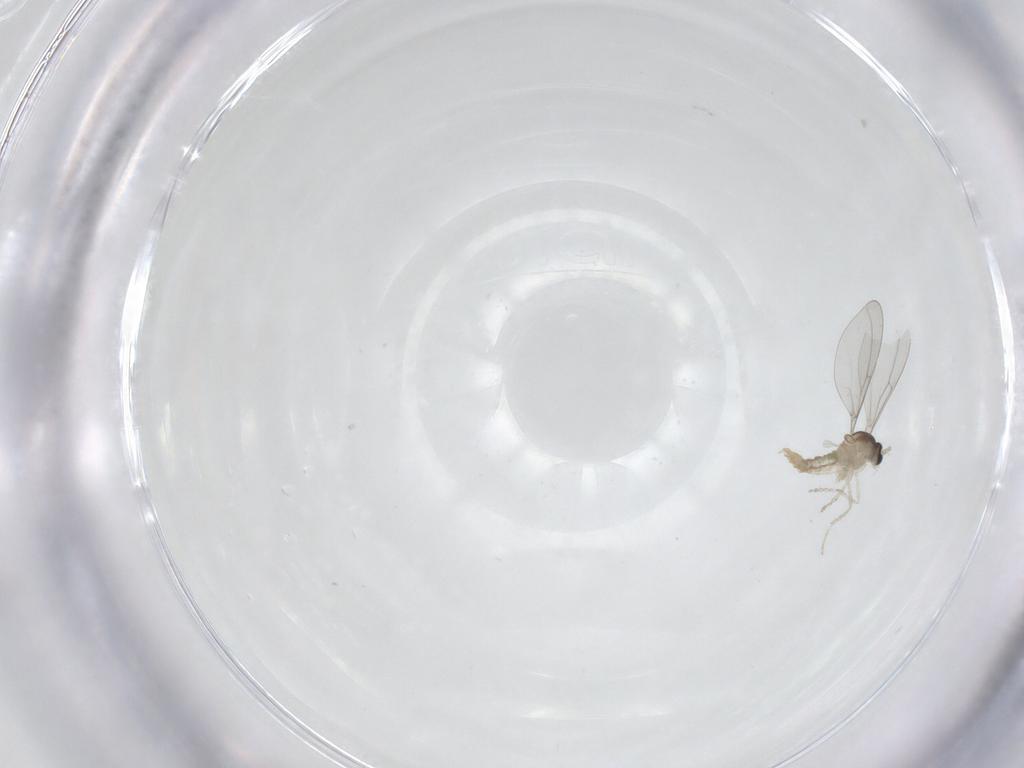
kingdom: Animalia
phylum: Arthropoda
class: Insecta
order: Diptera
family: Cecidomyiidae
